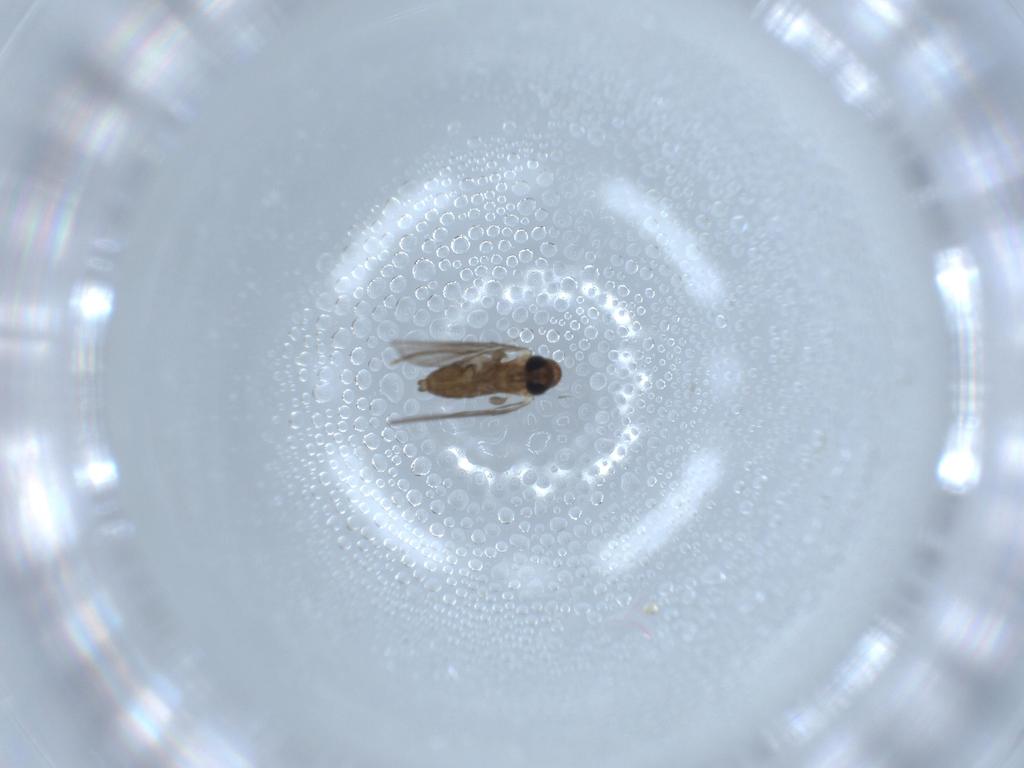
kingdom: Animalia
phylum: Arthropoda
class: Insecta
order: Diptera
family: Psychodidae
